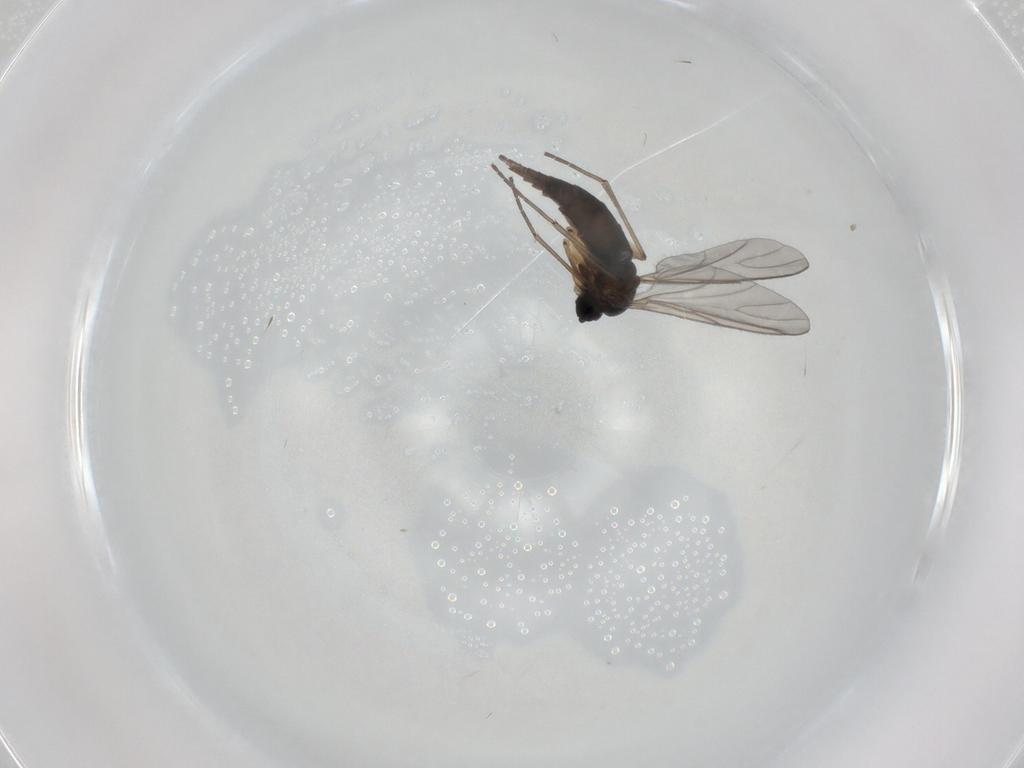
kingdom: Animalia
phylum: Arthropoda
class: Insecta
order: Diptera
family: Sciaridae
